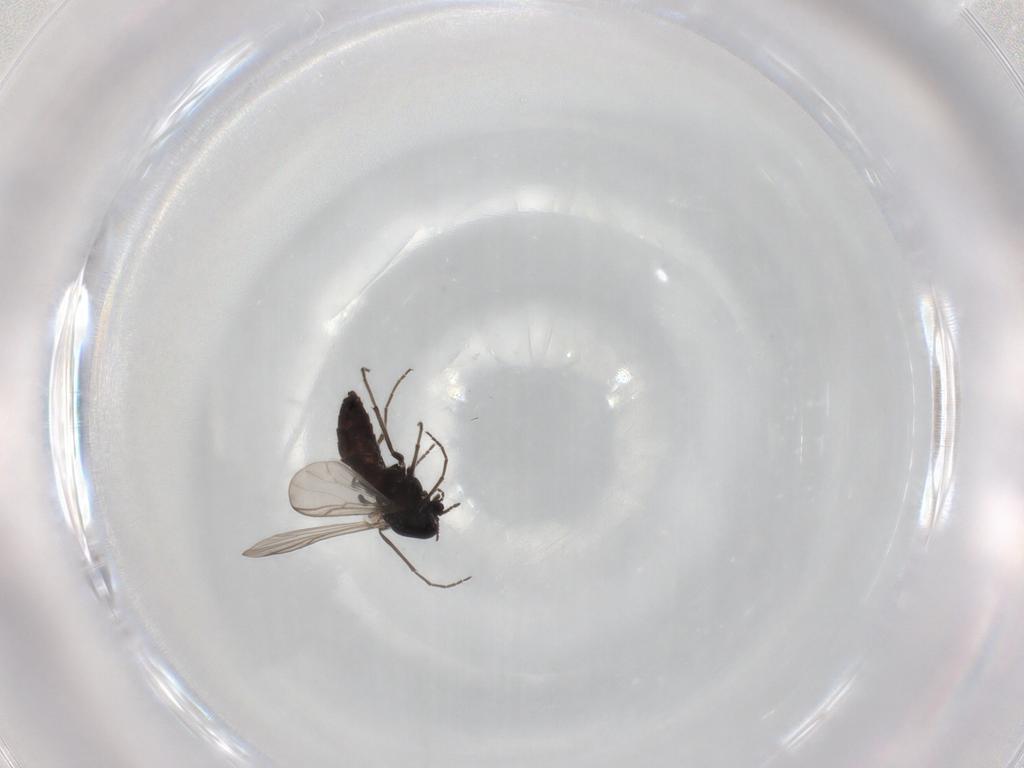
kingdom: Animalia
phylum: Arthropoda
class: Insecta
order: Diptera
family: Chironomidae
